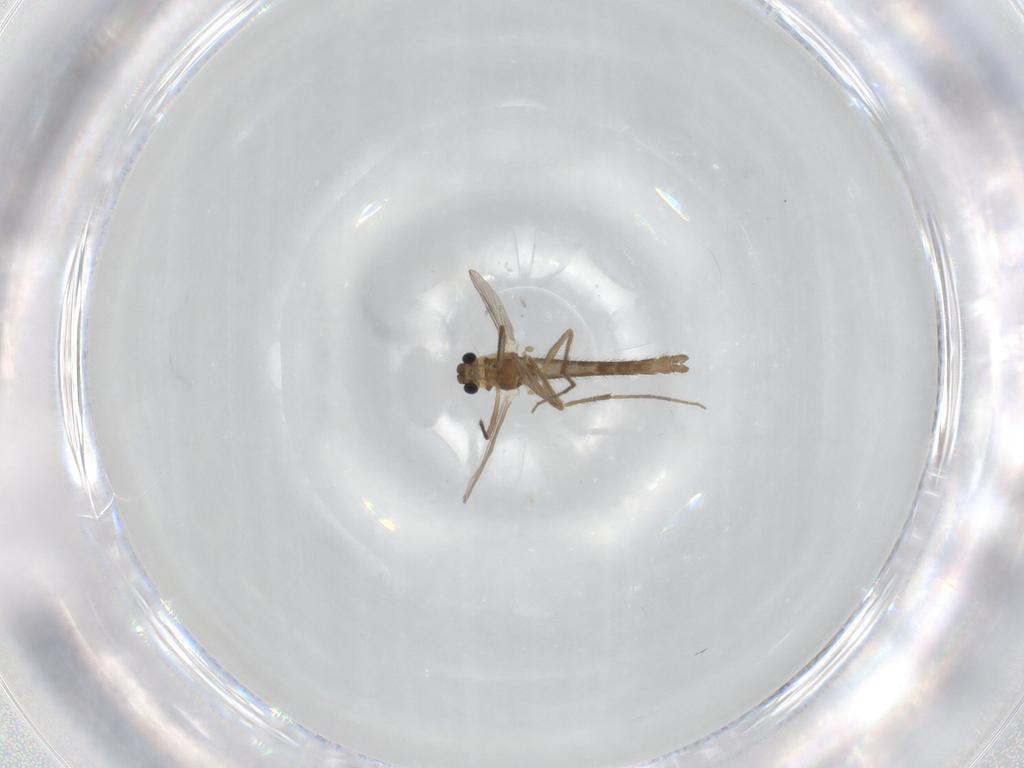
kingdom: Animalia
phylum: Arthropoda
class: Insecta
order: Diptera
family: Chironomidae
